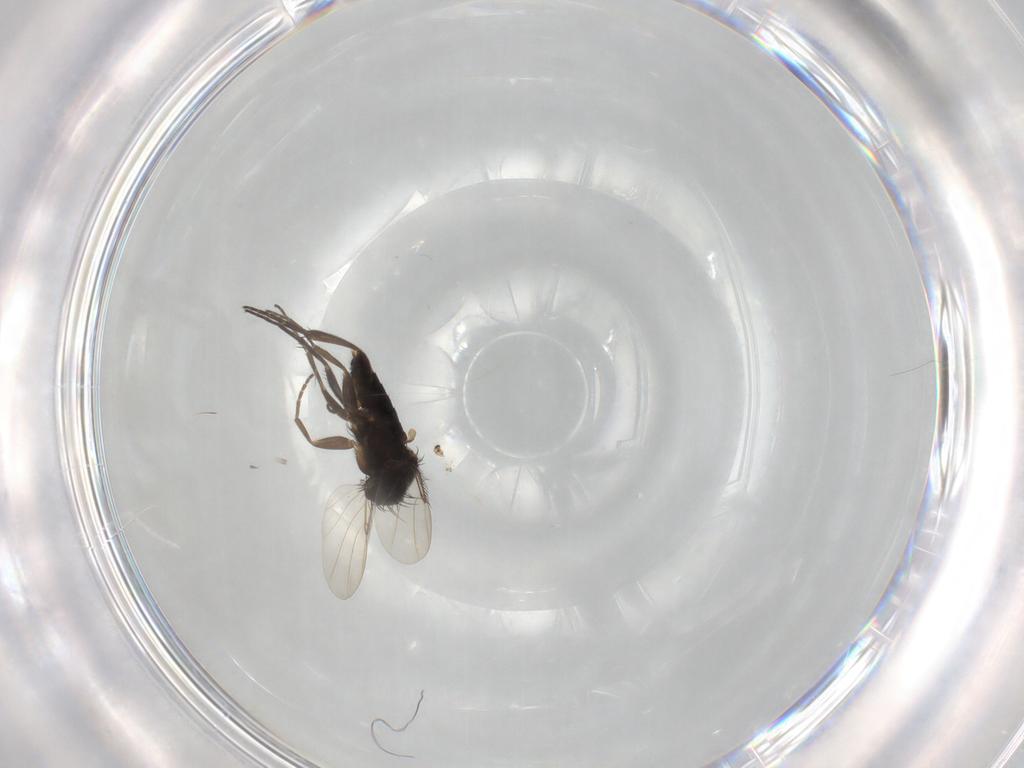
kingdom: Animalia
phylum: Arthropoda
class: Insecta
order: Diptera
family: Phoridae
